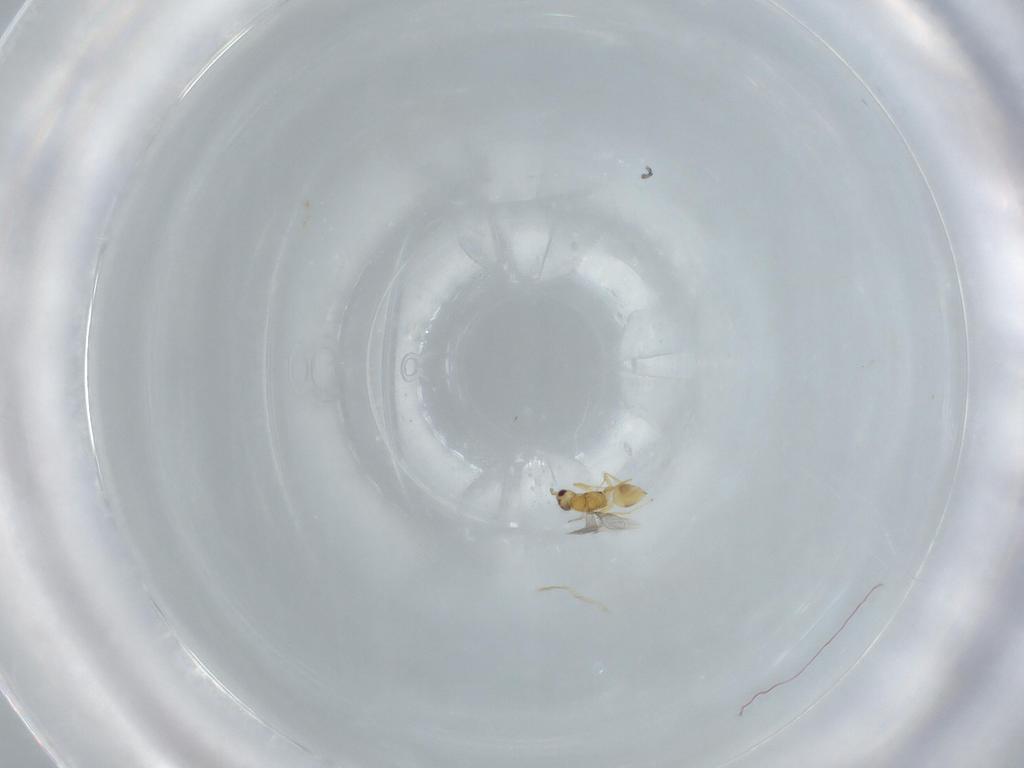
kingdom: Animalia
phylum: Arthropoda
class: Insecta
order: Hymenoptera
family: Mymaridae
